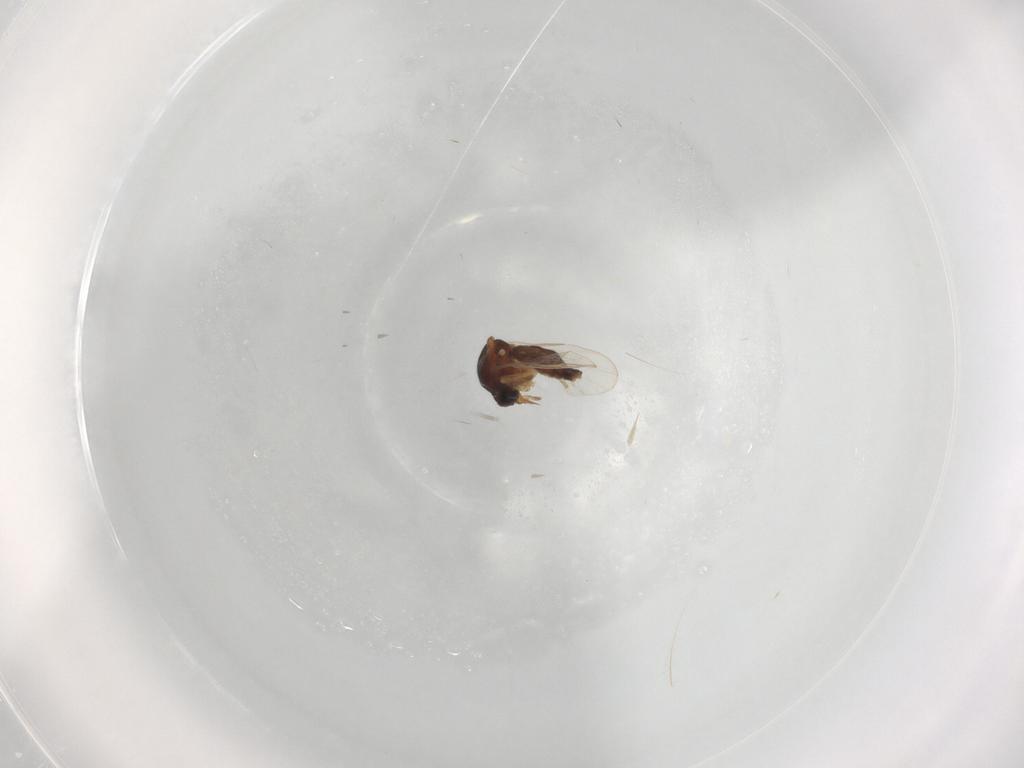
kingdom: Animalia
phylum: Arthropoda
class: Insecta
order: Diptera
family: Ceratopogonidae
